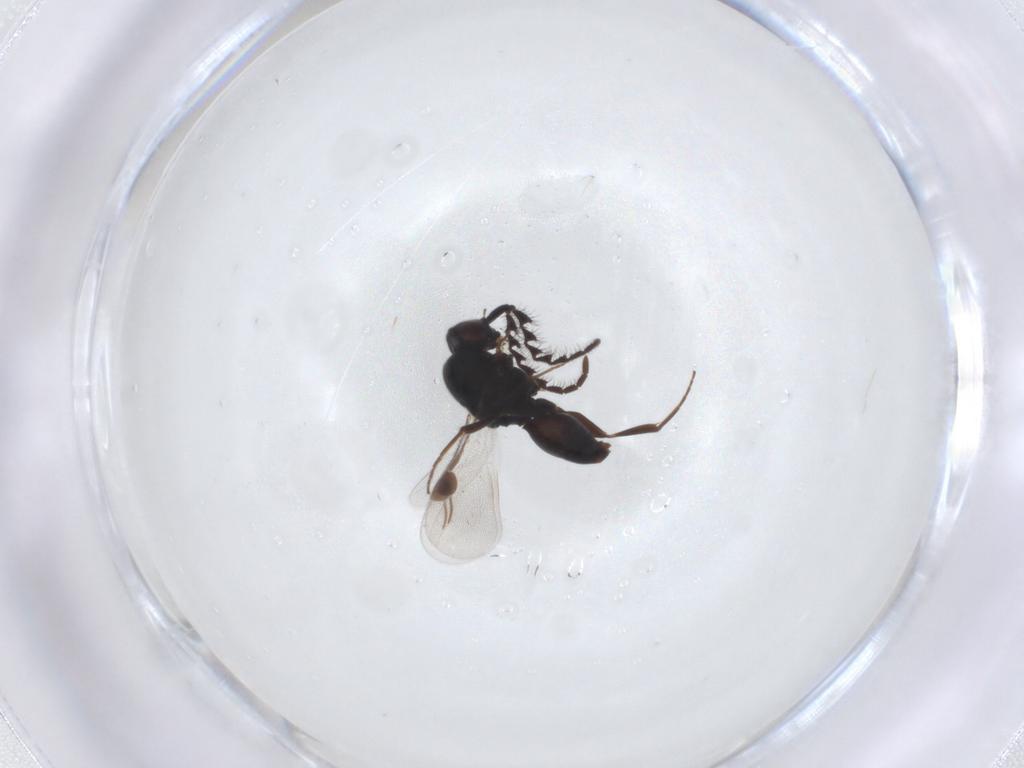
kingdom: Animalia
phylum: Arthropoda
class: Insecta
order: Hymenoptera
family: Megaspilidae
